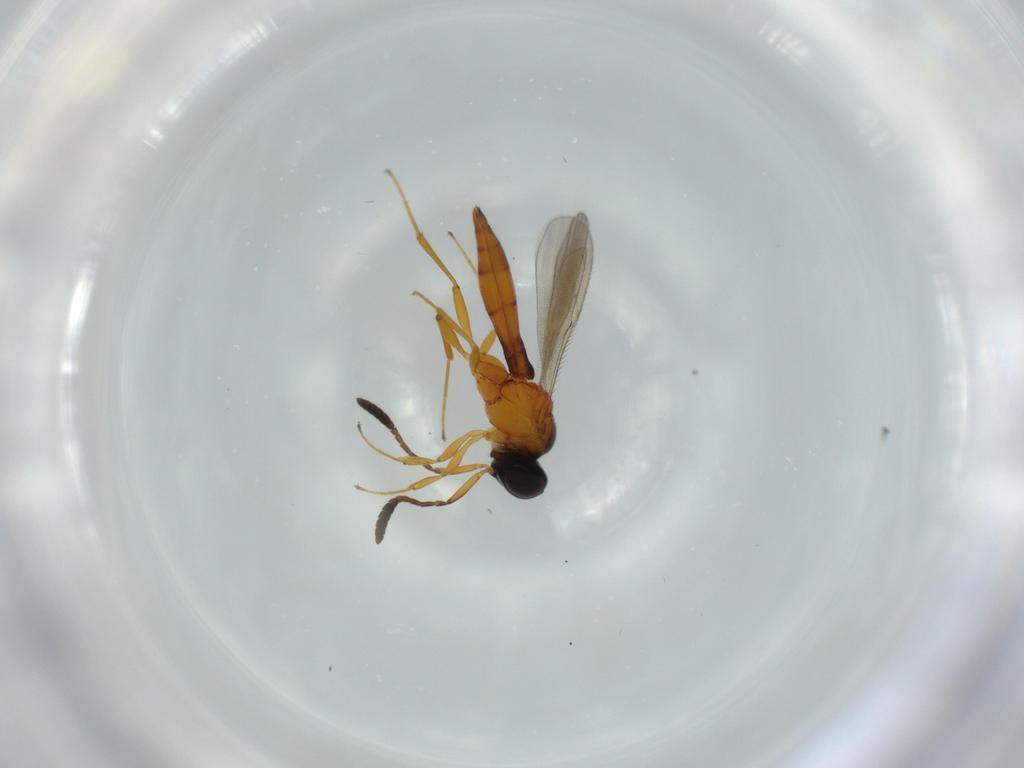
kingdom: Animalia
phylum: Arthropoda
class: Insecta
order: Hymenoptera
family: Scelionidae
